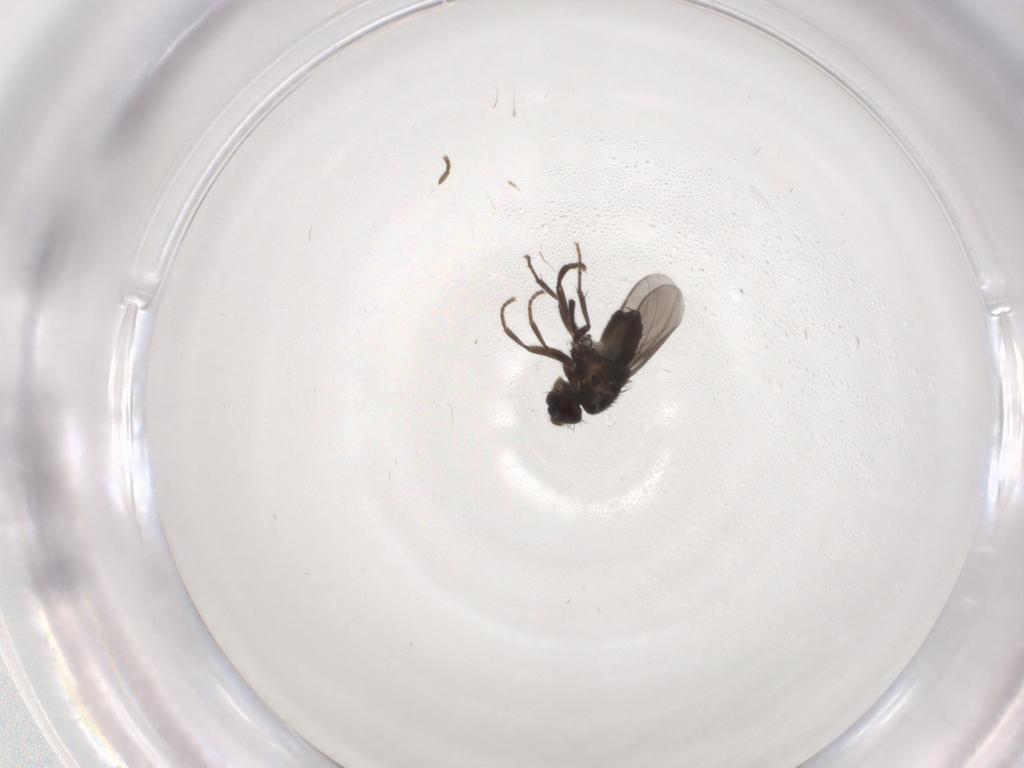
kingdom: Animalia
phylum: Arthropoda
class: Insecta
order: Diptera
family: Sphaeroceridae
